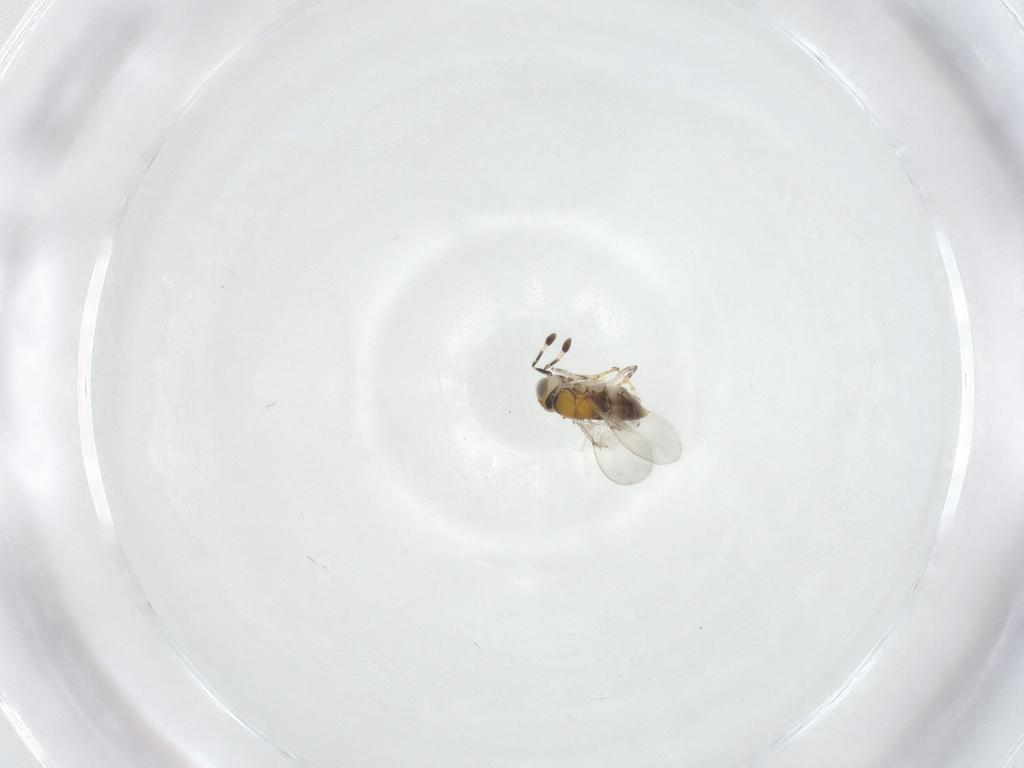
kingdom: Animalia
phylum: Arthropoda
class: Insecta
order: Hymenoptera
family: Encyrtidae
